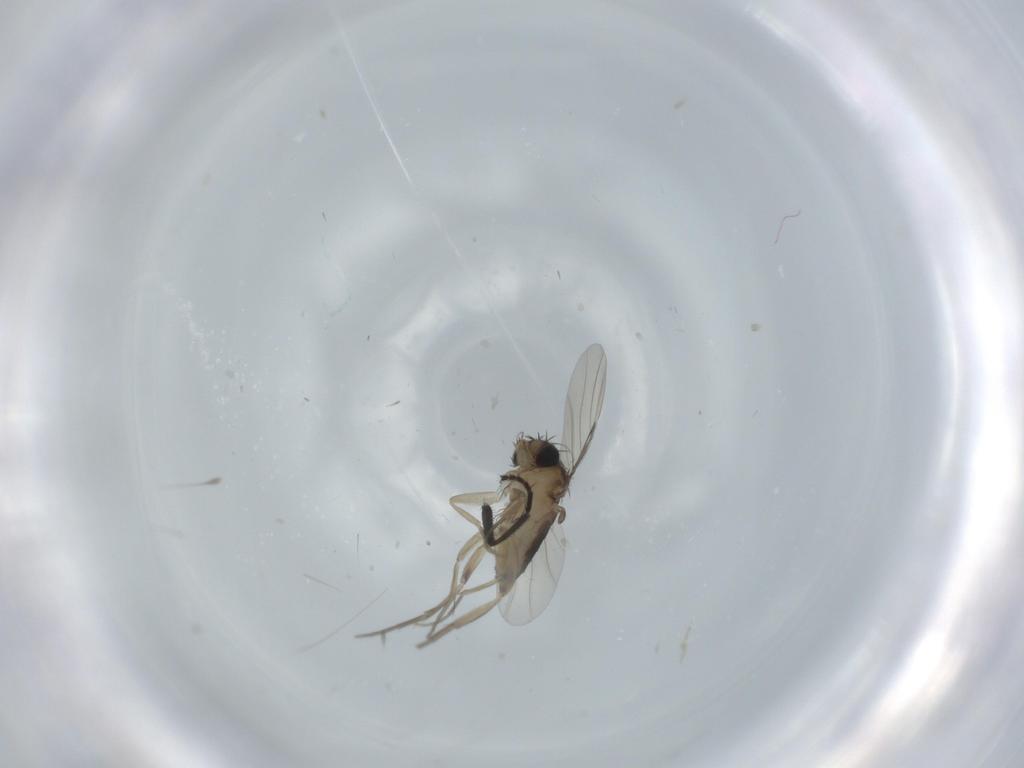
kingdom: Animalia
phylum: Arthropoda
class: Insecta
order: Diptera
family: Phoridae
